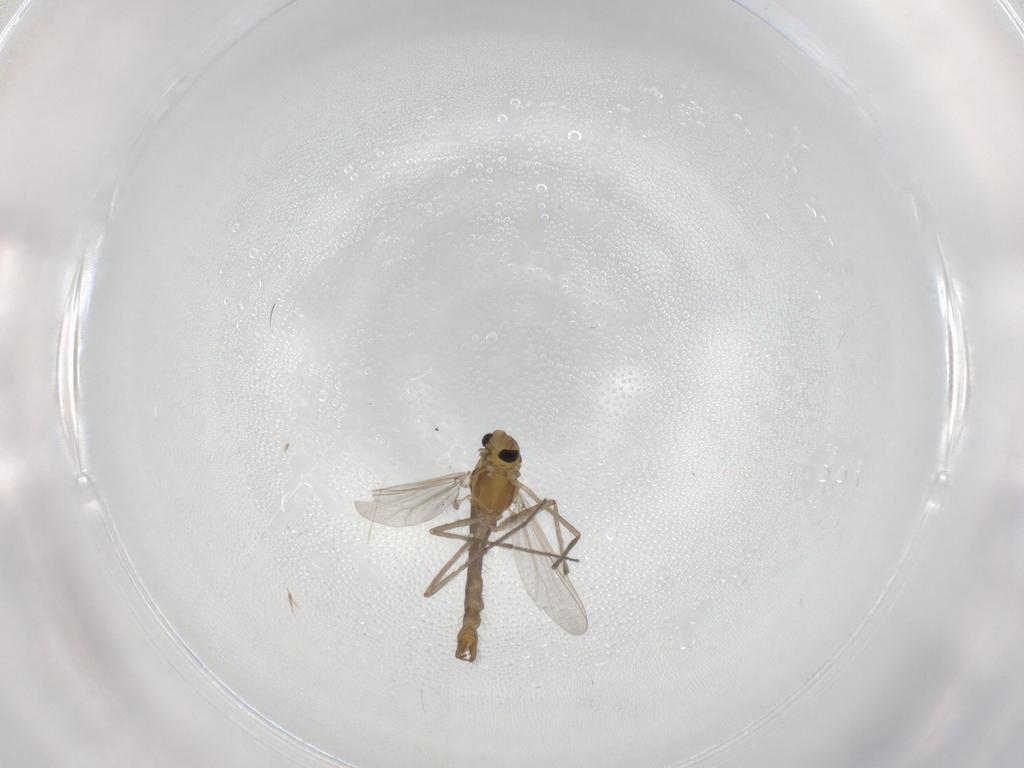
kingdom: Animalia
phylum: Arthropoda
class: Insecta
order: Diptera
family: Chironomidae
